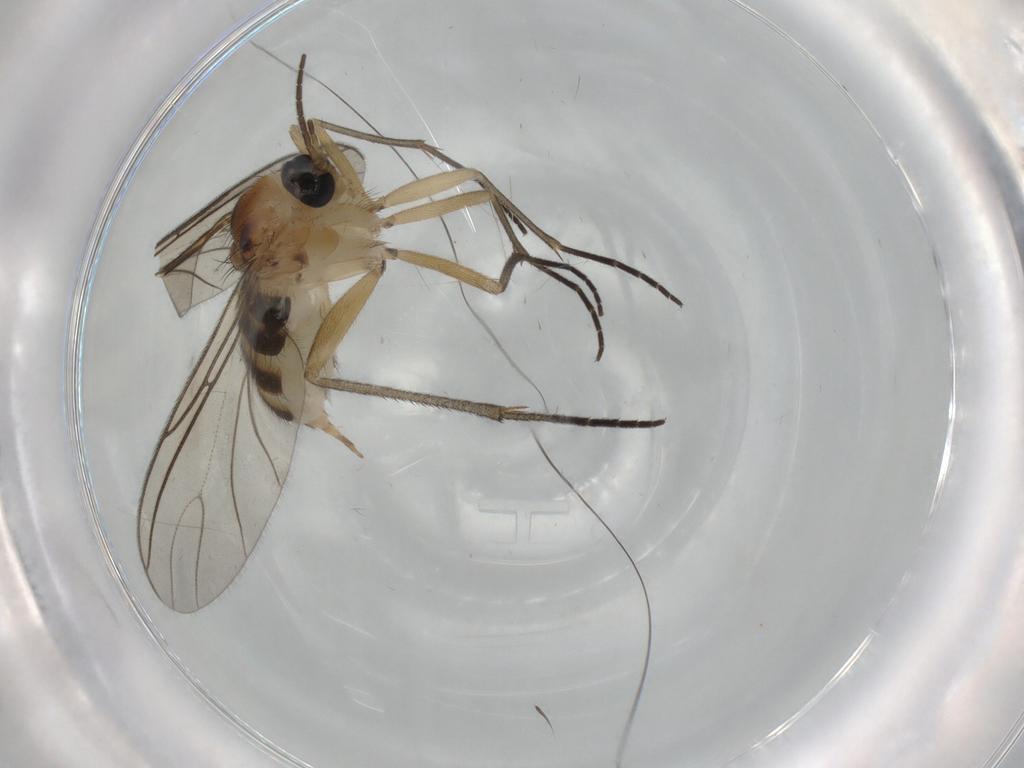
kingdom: Animalia
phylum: Arthropoda
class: Insecta
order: Diptera
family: Sciaridae
